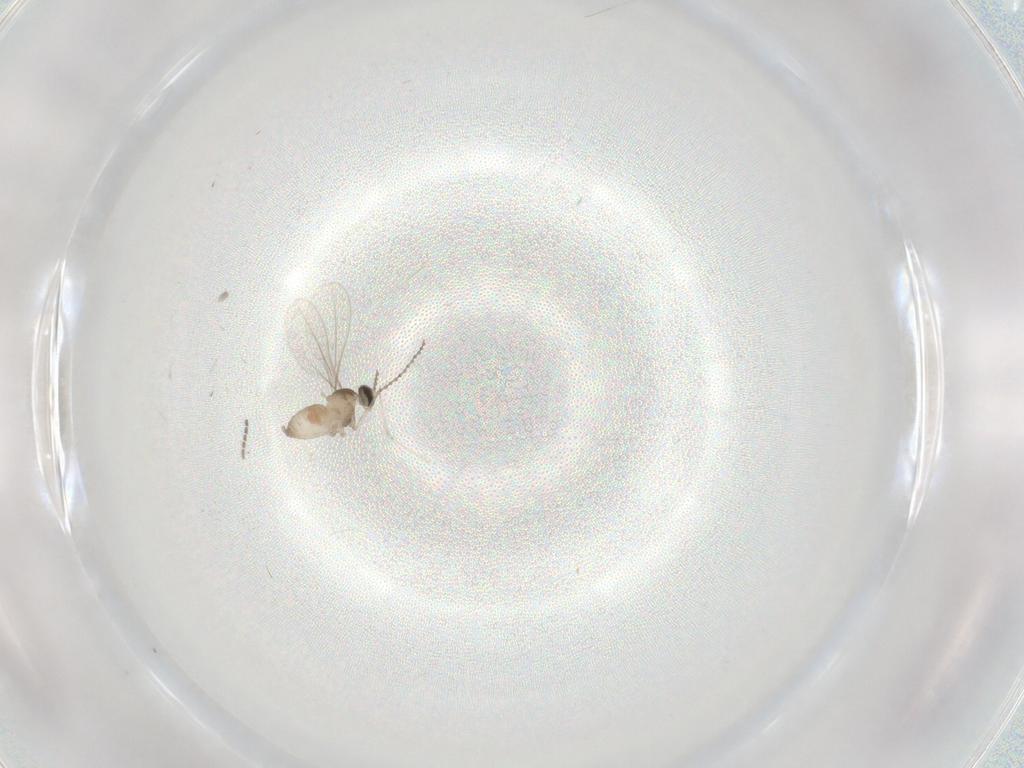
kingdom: Animalia
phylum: Arthropoda
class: Insecta
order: Diptera
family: Cecidomyiidae
